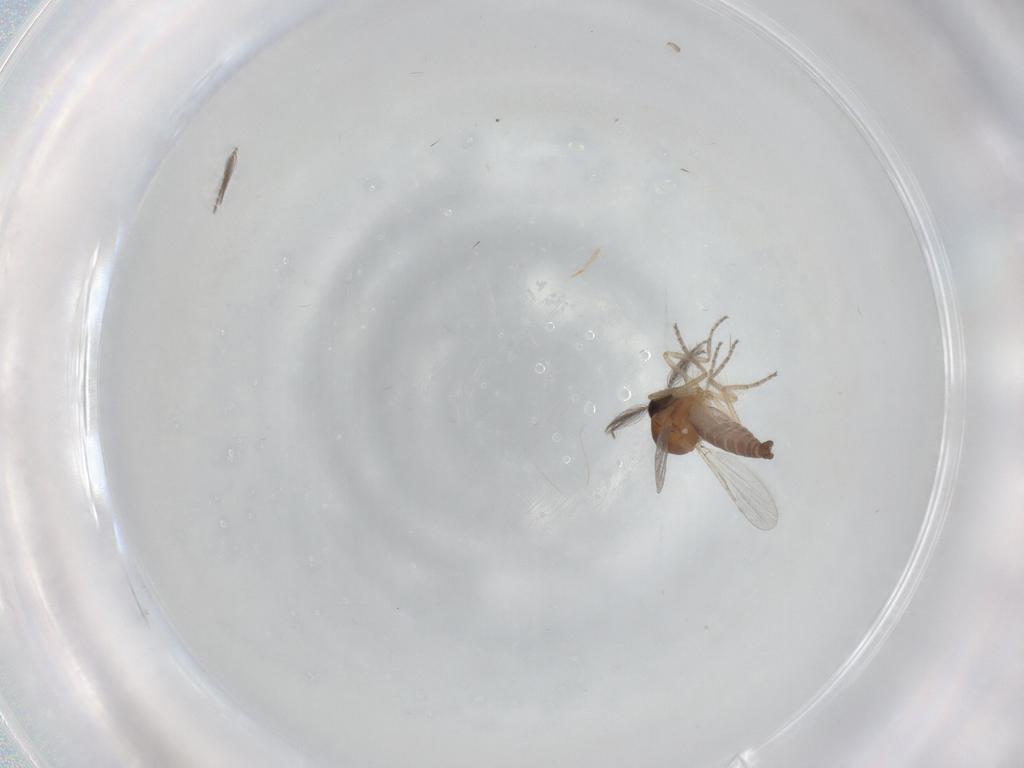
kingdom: Animalia
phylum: Arthropoda
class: Insecta
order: Diptera
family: Ceratopogonidae
